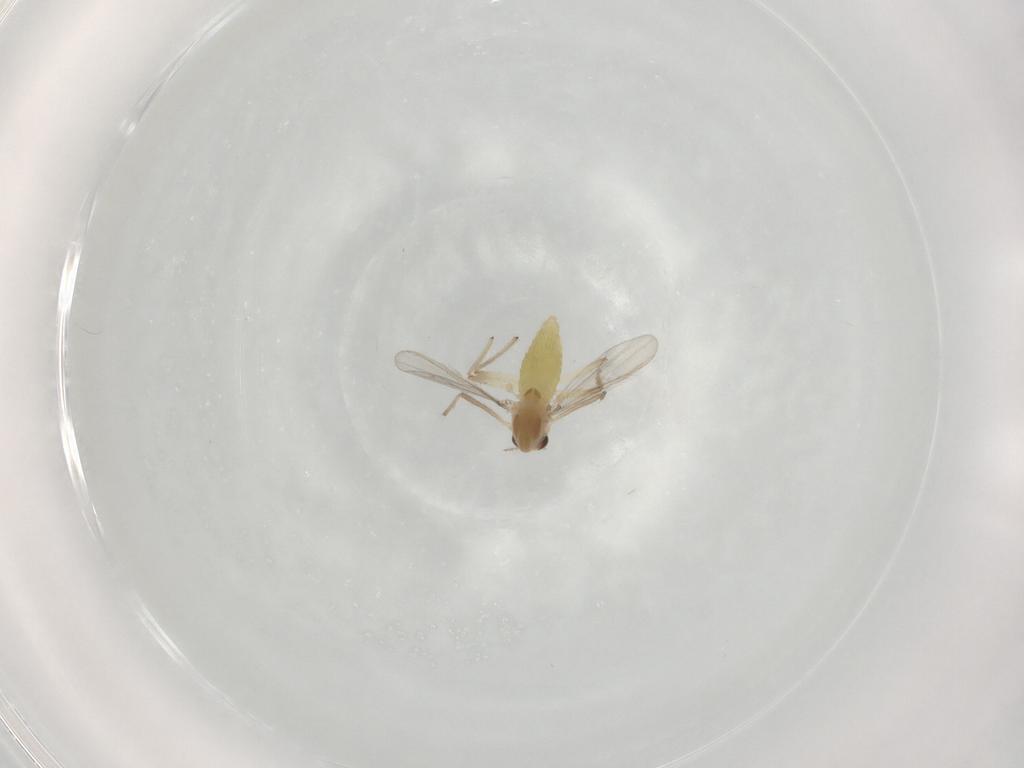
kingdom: Animalia
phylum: Arthropoda
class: Insecta
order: Diptera
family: Chironomidae
